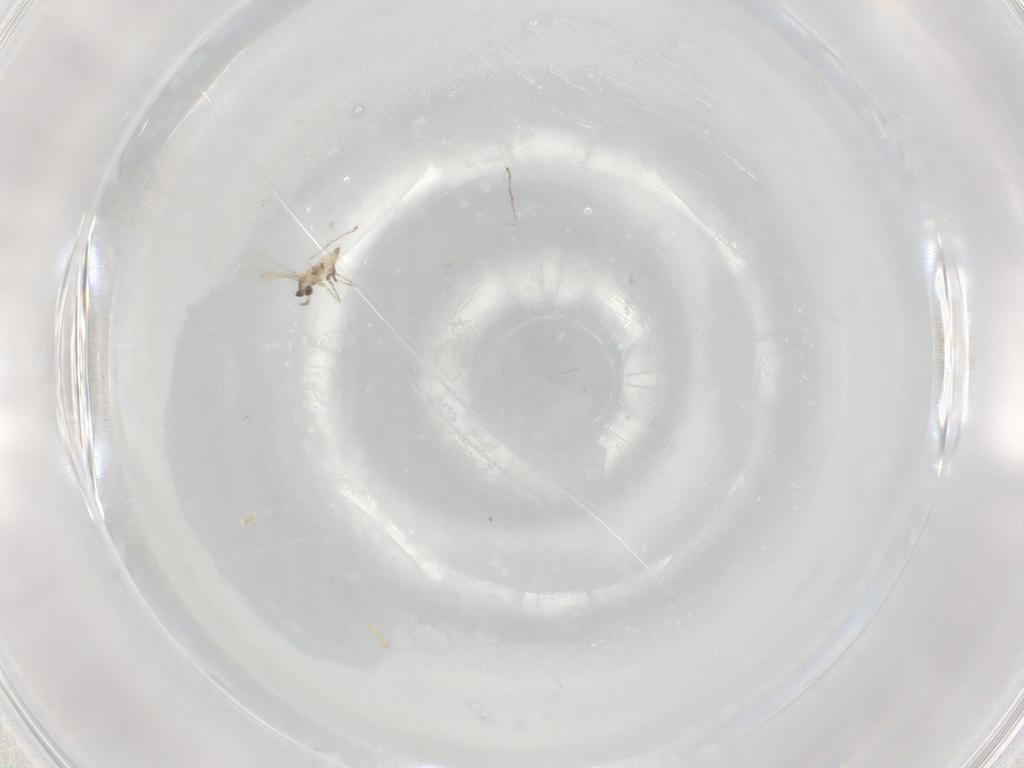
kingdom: Animalia
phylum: Arthropoda
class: Insecta
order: Diptera
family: Cecidomyiidae
